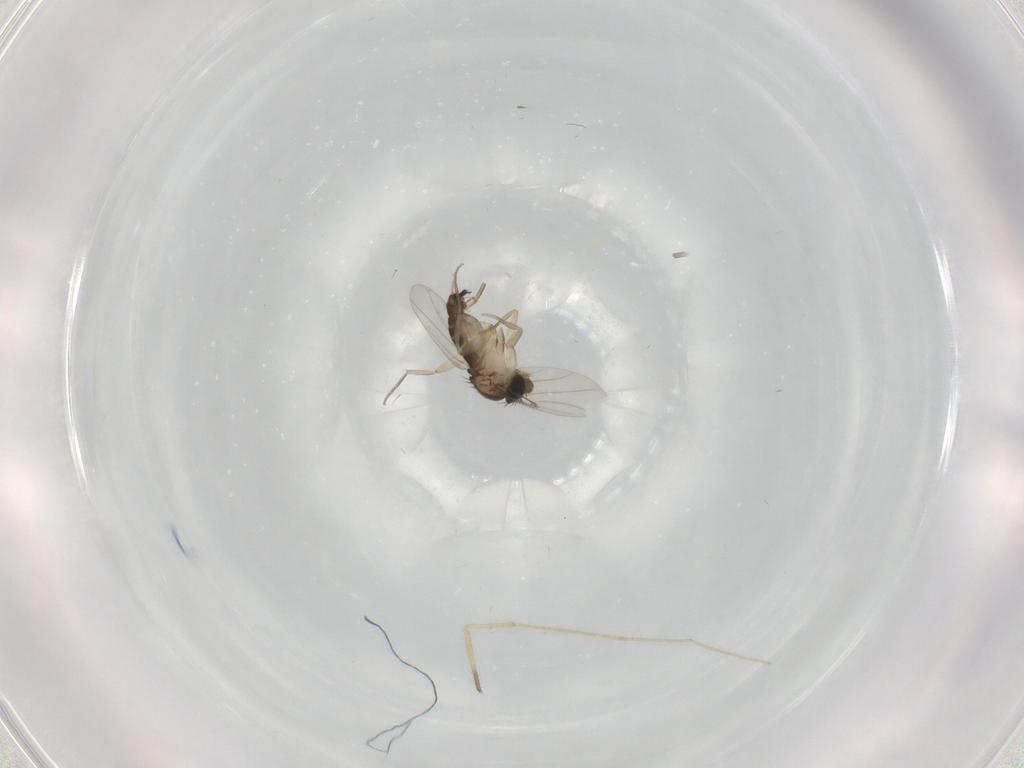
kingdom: Animalia
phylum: Arthropoda
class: Insecta
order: Diptera
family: Phoridae
